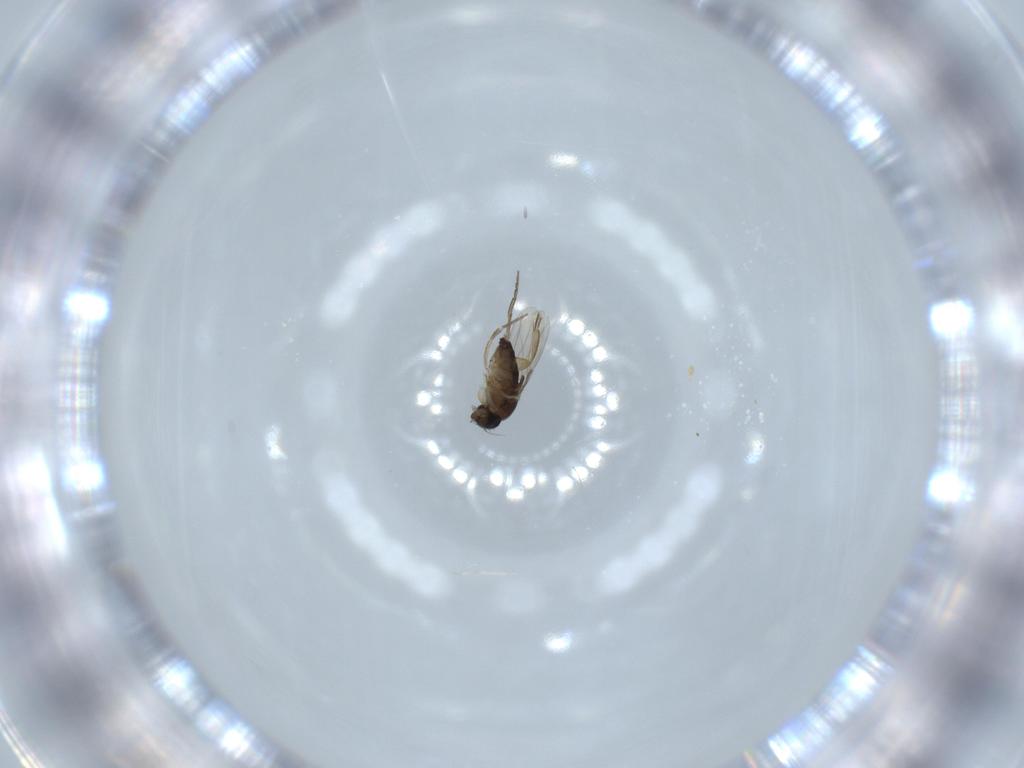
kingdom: Animalia
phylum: Arthropoda
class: Insecta
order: Diptera
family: Phoridae
